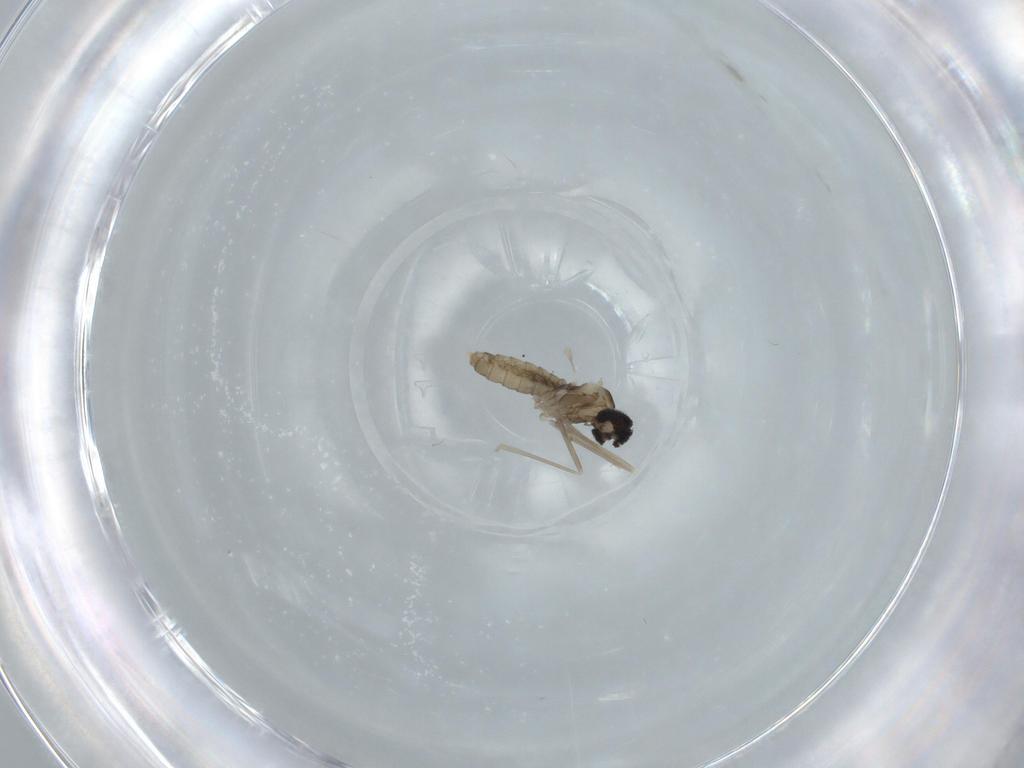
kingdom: Animalia
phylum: Arthropoda
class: Insecta
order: Diptera
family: Cecidomyiidae
